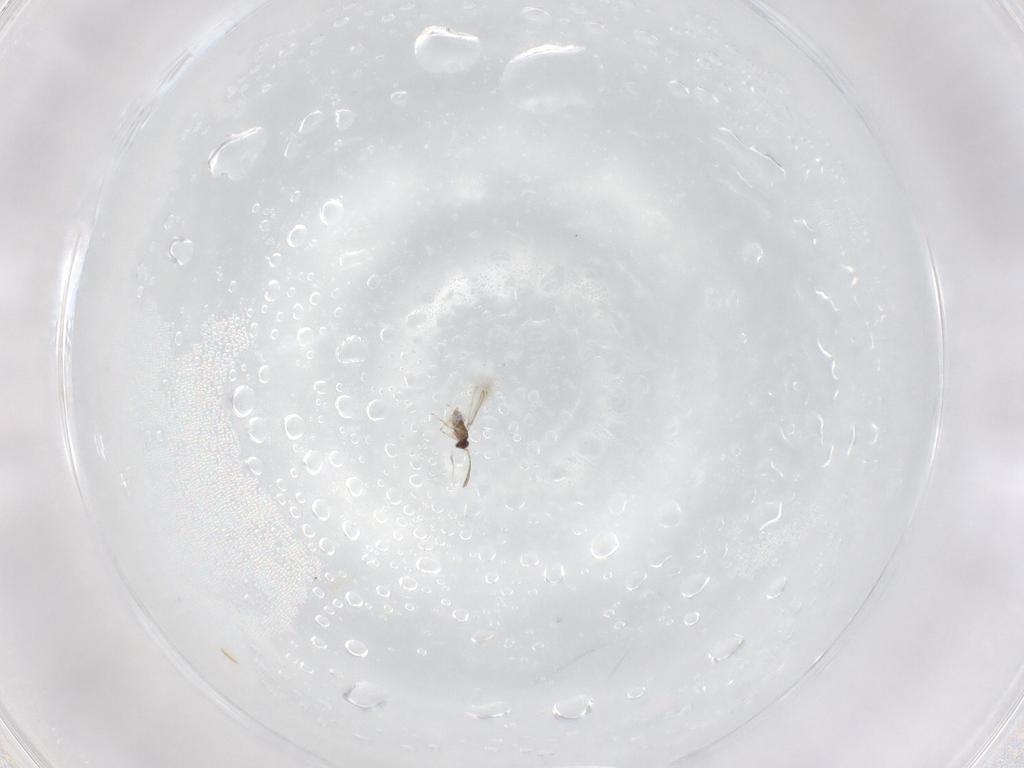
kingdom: Animalia
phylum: Arthropoda
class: Insecta
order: Hymenoptera
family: Mymaridae
